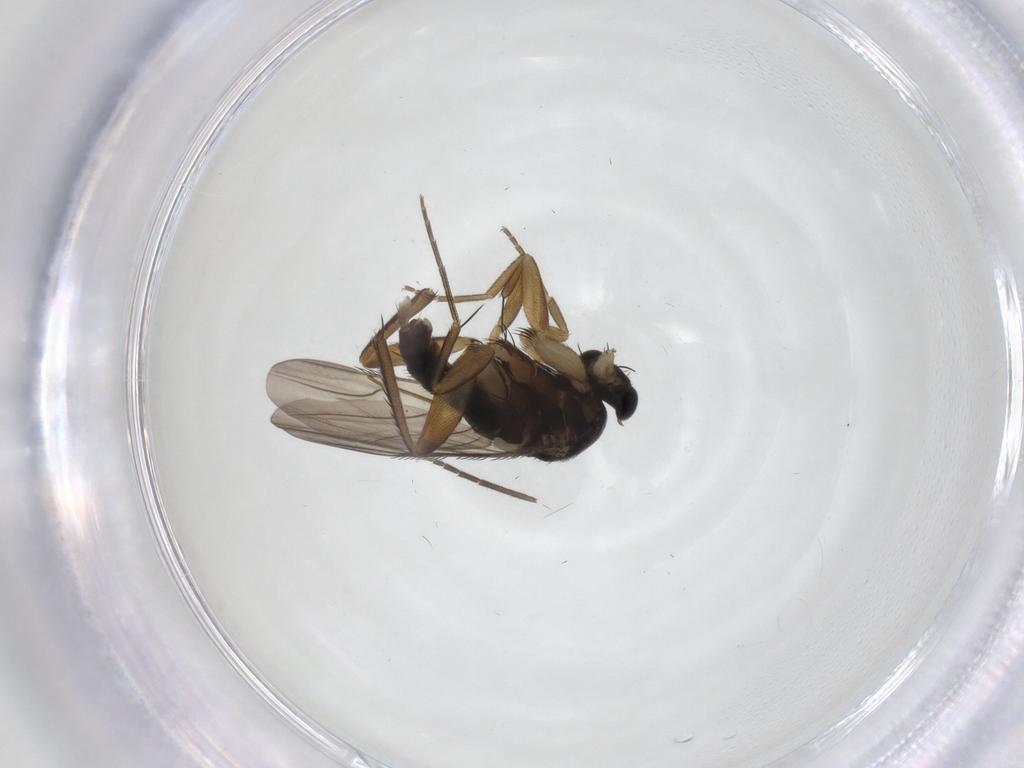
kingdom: Animalia
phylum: Arthropoda
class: Insecta
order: Diptera
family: Phoridae
